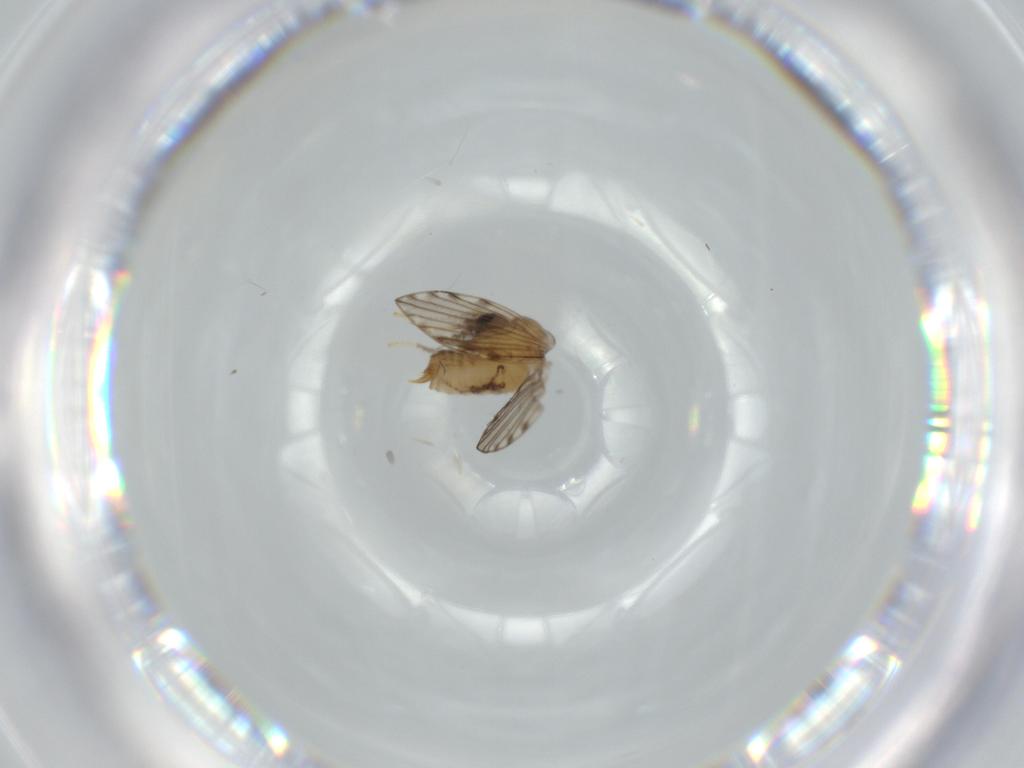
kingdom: Animalia
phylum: Arthropoda
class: Insecta
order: Diptera
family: Psychodidae
